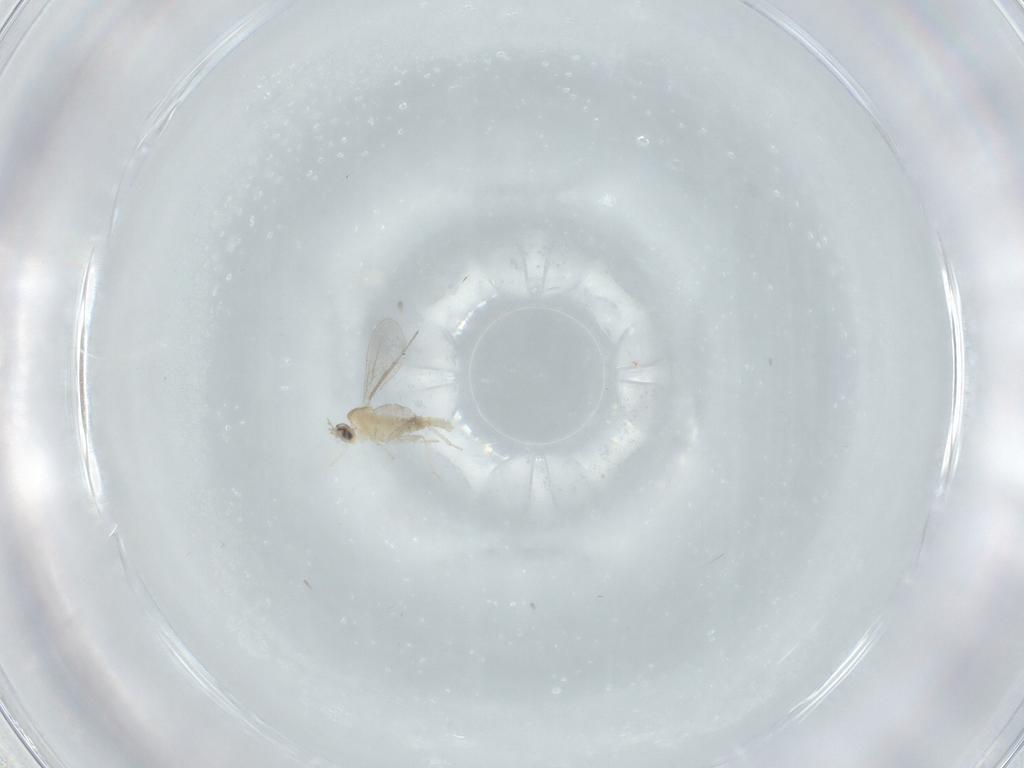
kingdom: Animalia
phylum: Arthropoda
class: Insecta
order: Diptera
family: Cecidomyiidae
